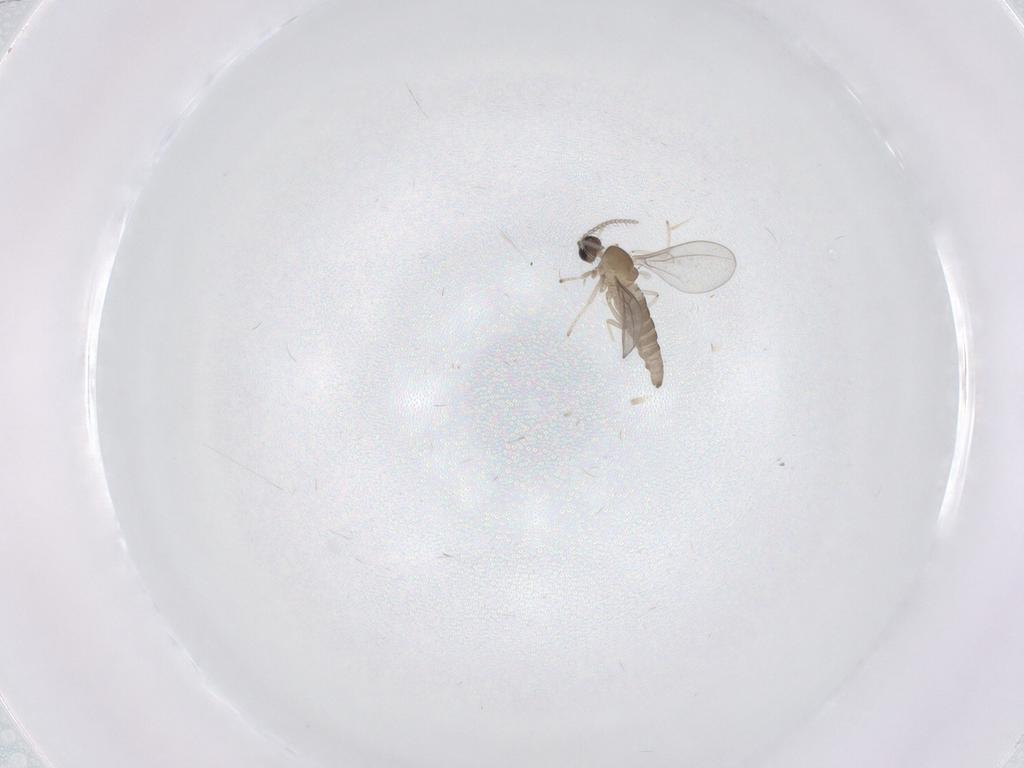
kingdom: Animalia
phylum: Arthropoda
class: Insecta
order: Diptera
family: Cecidomyiidae
